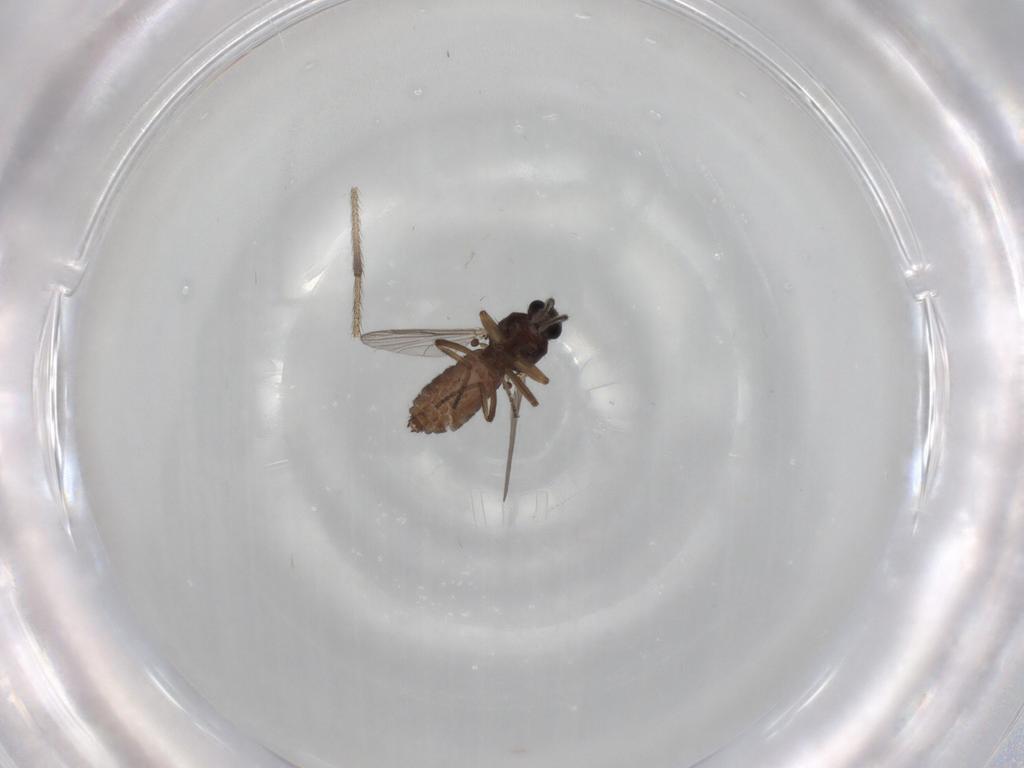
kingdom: Animalia
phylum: Arthropoda
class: Insecta
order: Diptera
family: Limoniidae
